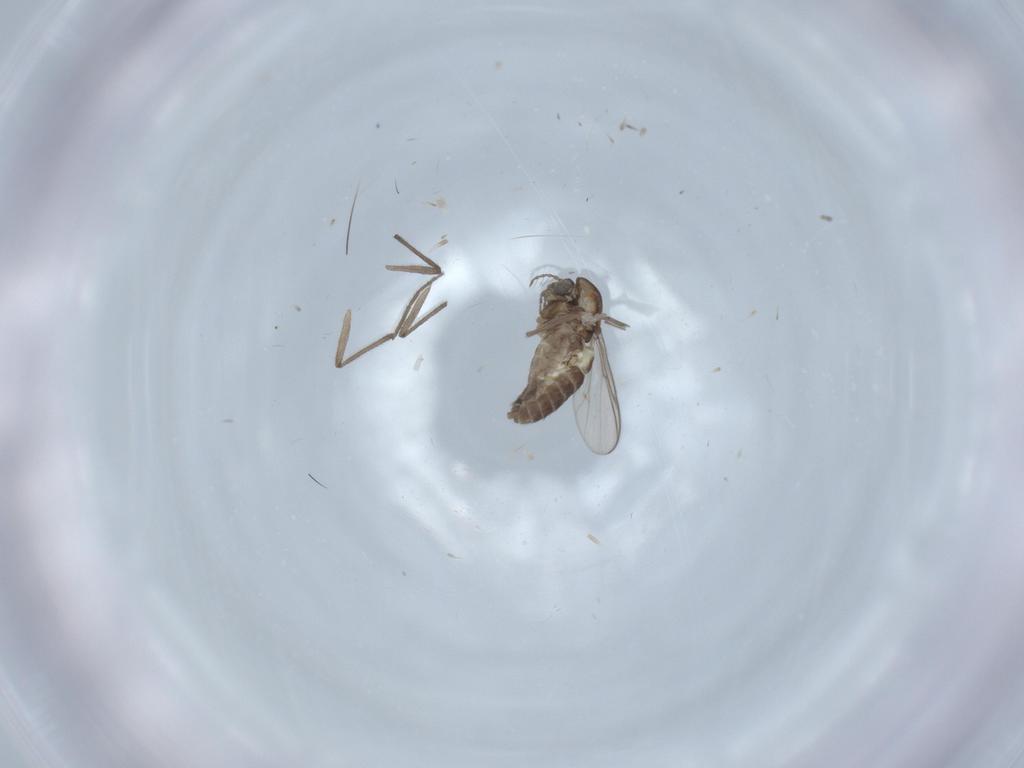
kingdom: Animalia
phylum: Arthropoda
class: Insecta
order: Diptera
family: Chironomidae
